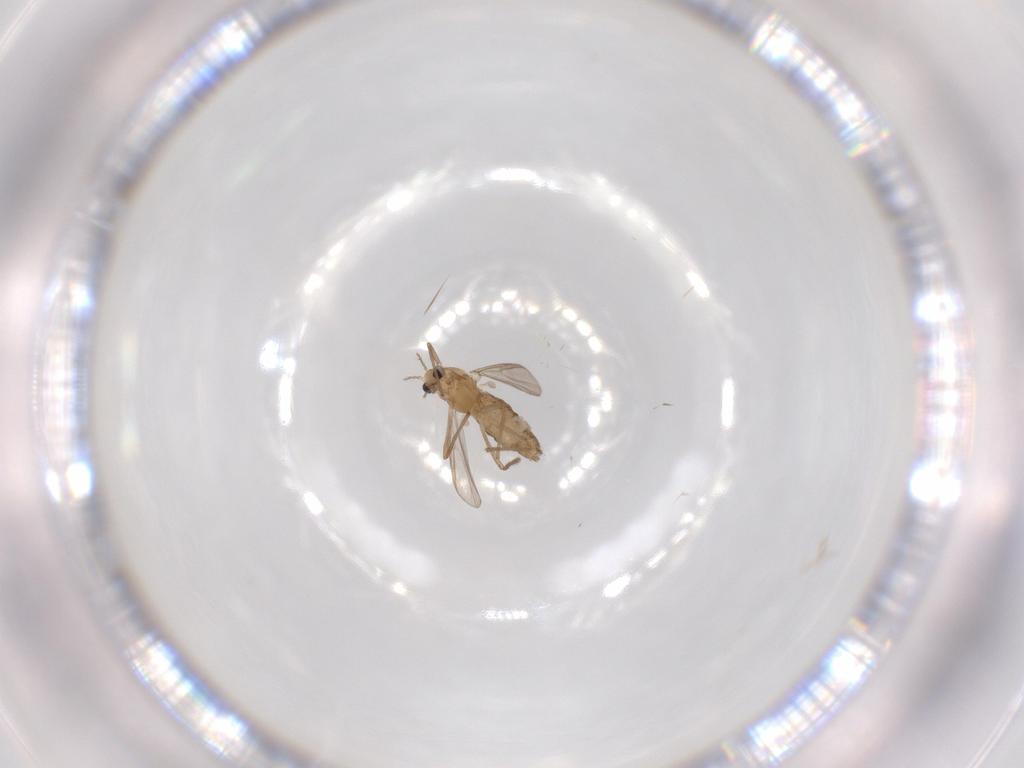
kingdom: Animalia
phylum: Arthropoda
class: Insecta
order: Diptera
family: Chironomidae
